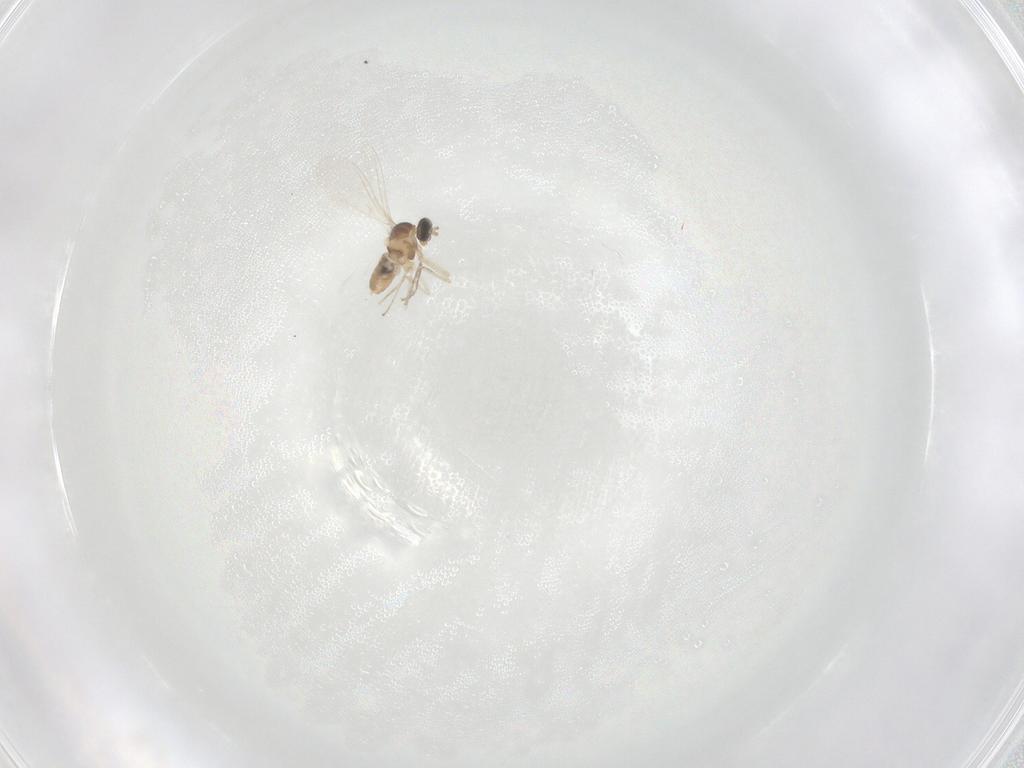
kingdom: Animalia
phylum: Arthropoda
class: Insecta
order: Diptera
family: Cecidomyiidae
